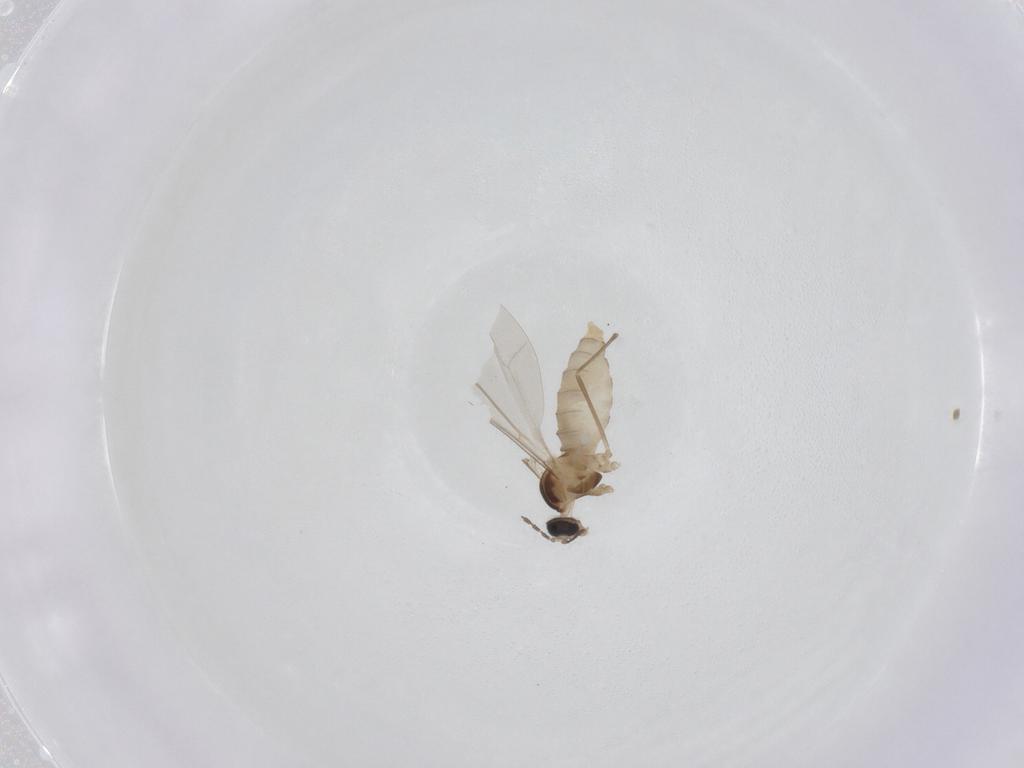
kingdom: Animalia
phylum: Arthropoda
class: Insecta
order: Diptera
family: Cecidomyiidae
